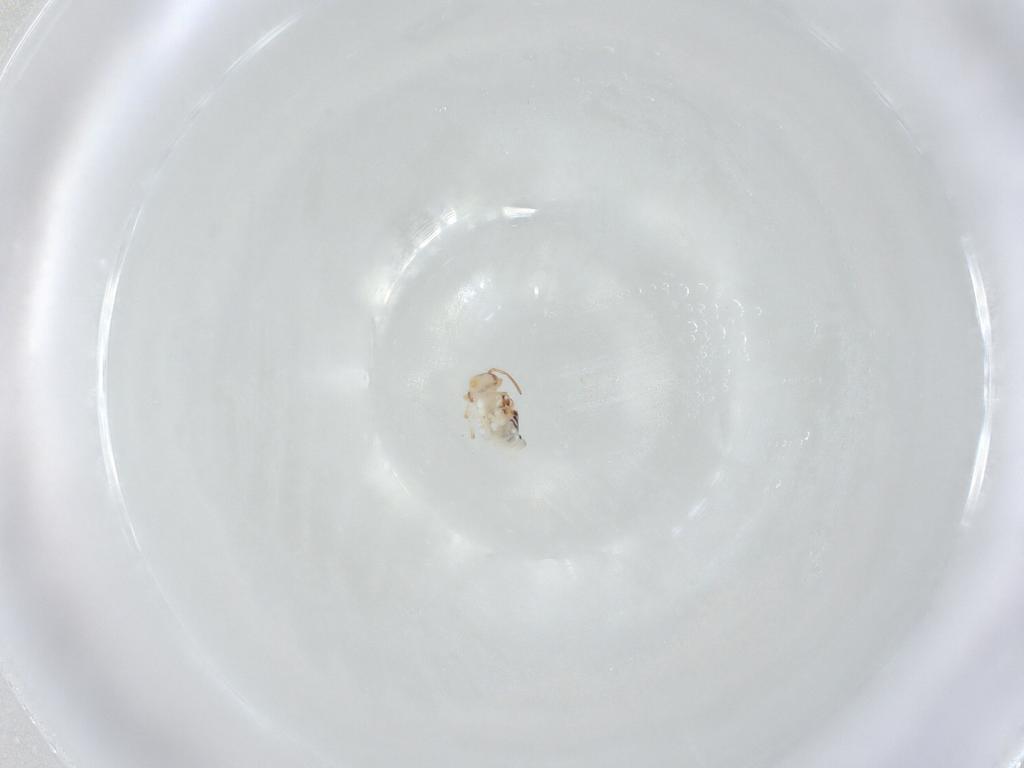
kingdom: Animalia
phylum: Arthropoda
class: Collembola
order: Symphypleona
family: Bourletiellidae
